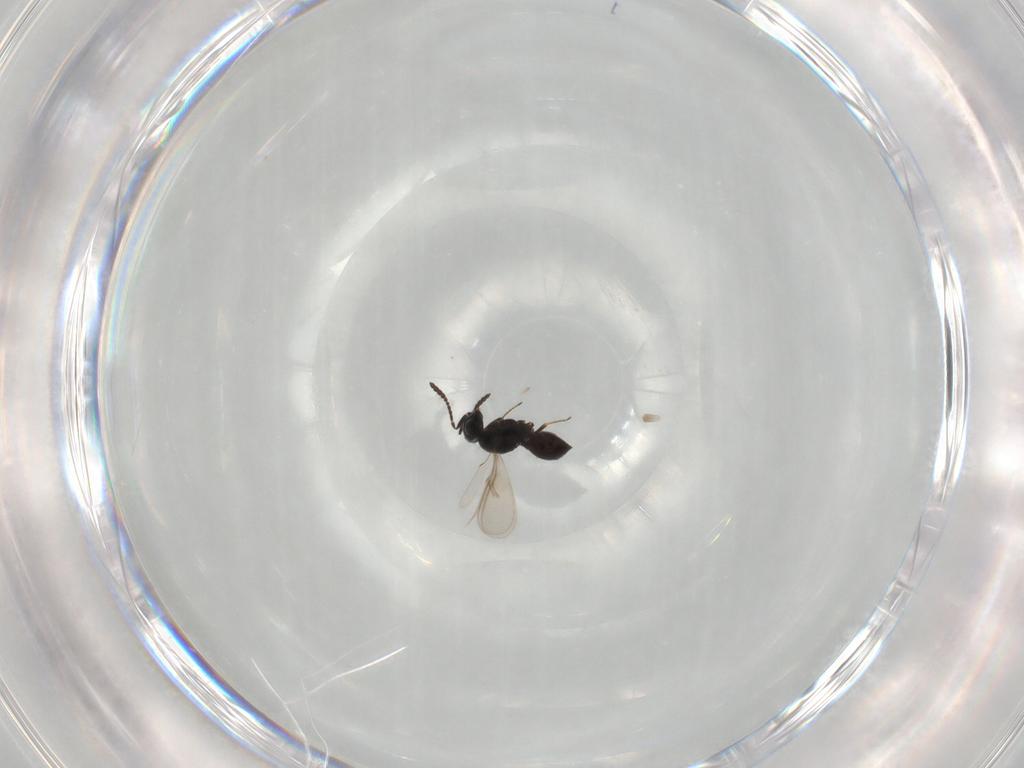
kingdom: Animalia
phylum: Arthropoda
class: Insecta
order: Hymenoptera
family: Scelionidae
